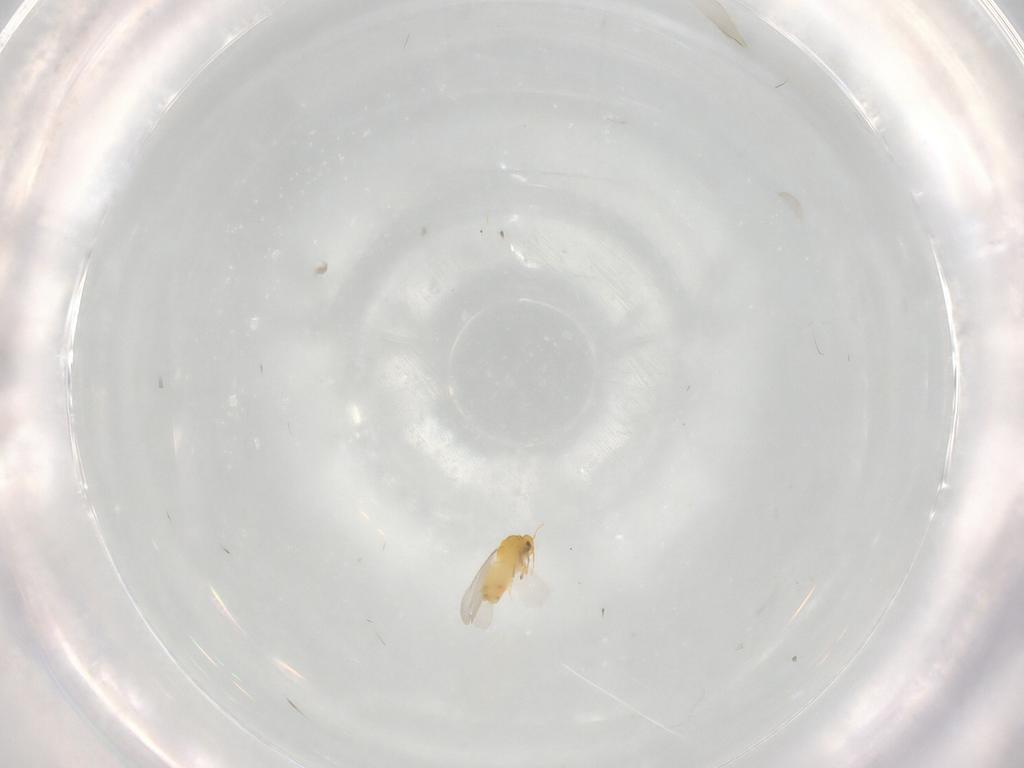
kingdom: Animalia
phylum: Arthropoda
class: Insecta
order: Hemiptera
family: Aleyrodidae
